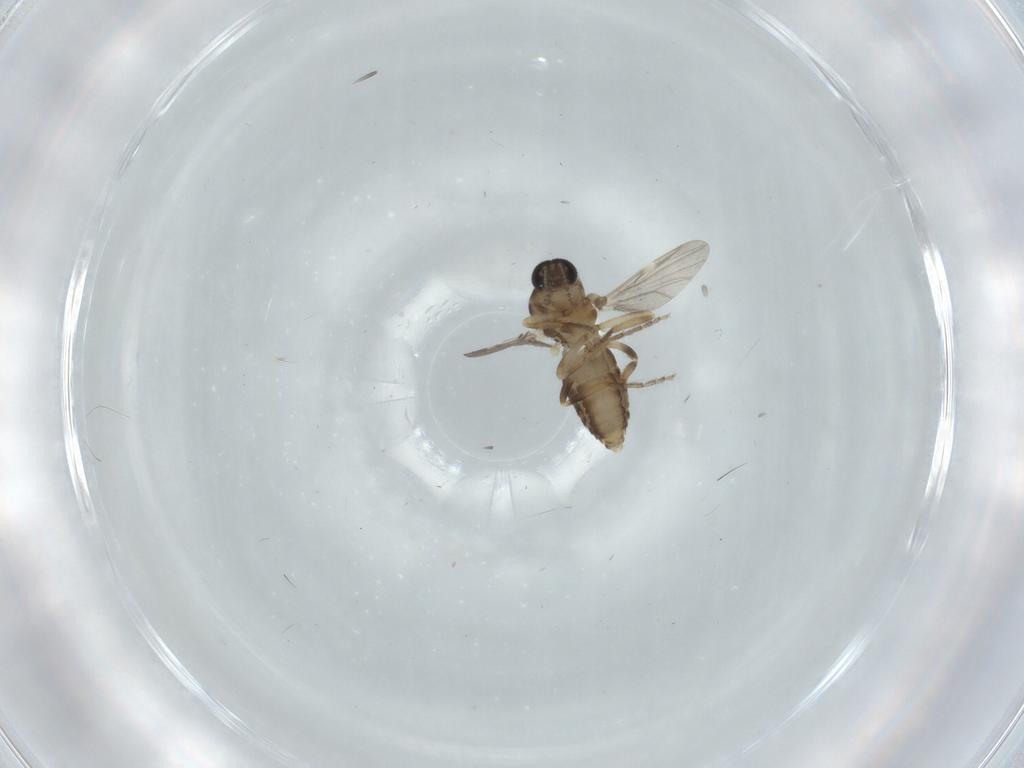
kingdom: Animalia
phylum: Arthropoda
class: Insecta
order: Diptera
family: Ceratopogonidae
